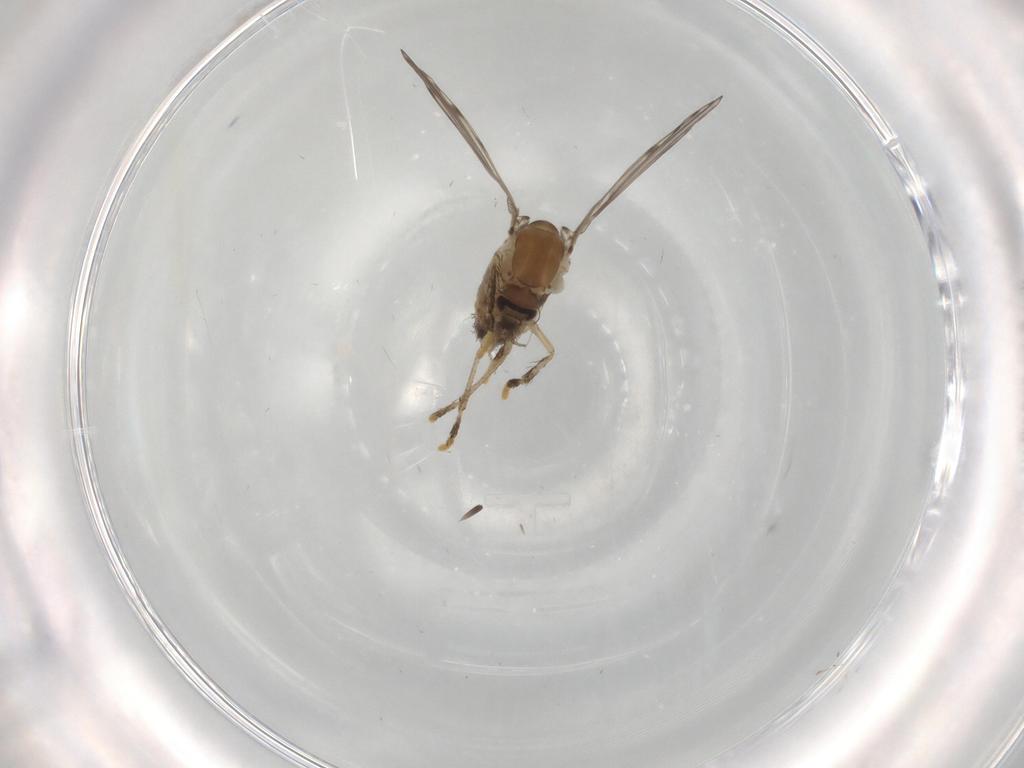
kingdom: Animalia
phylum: Arthropoda
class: Insecta
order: Diptera
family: Psychodidae
